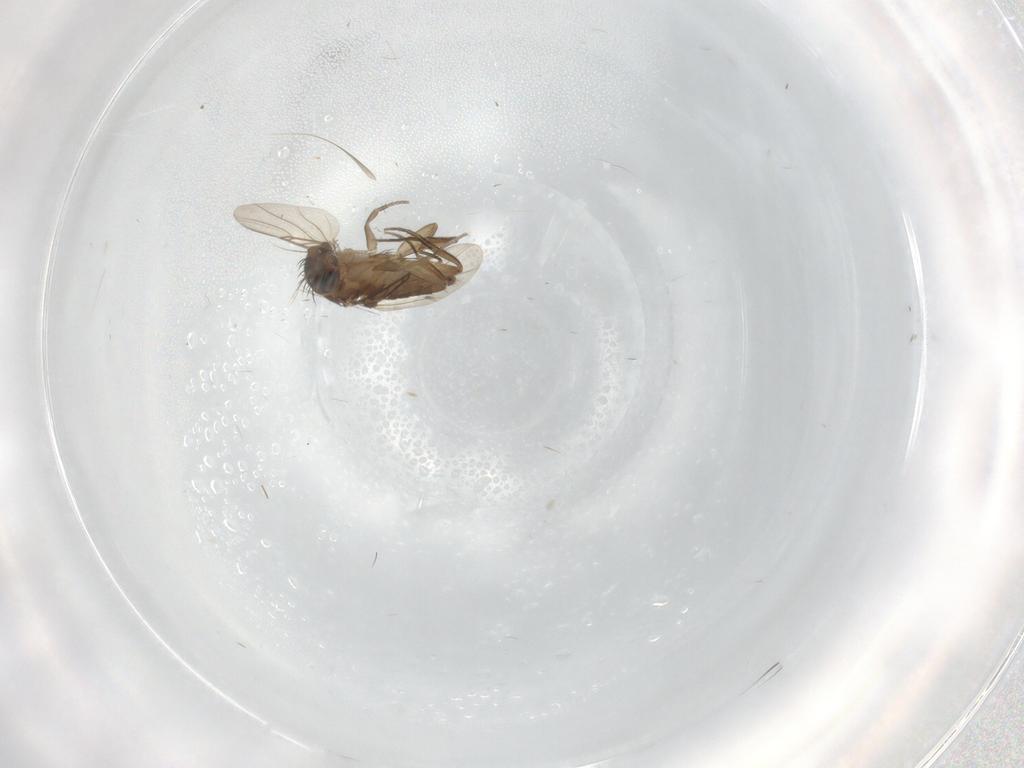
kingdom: Animalia
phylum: Arthropoda
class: Insecta
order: Diptera
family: Phoridae
